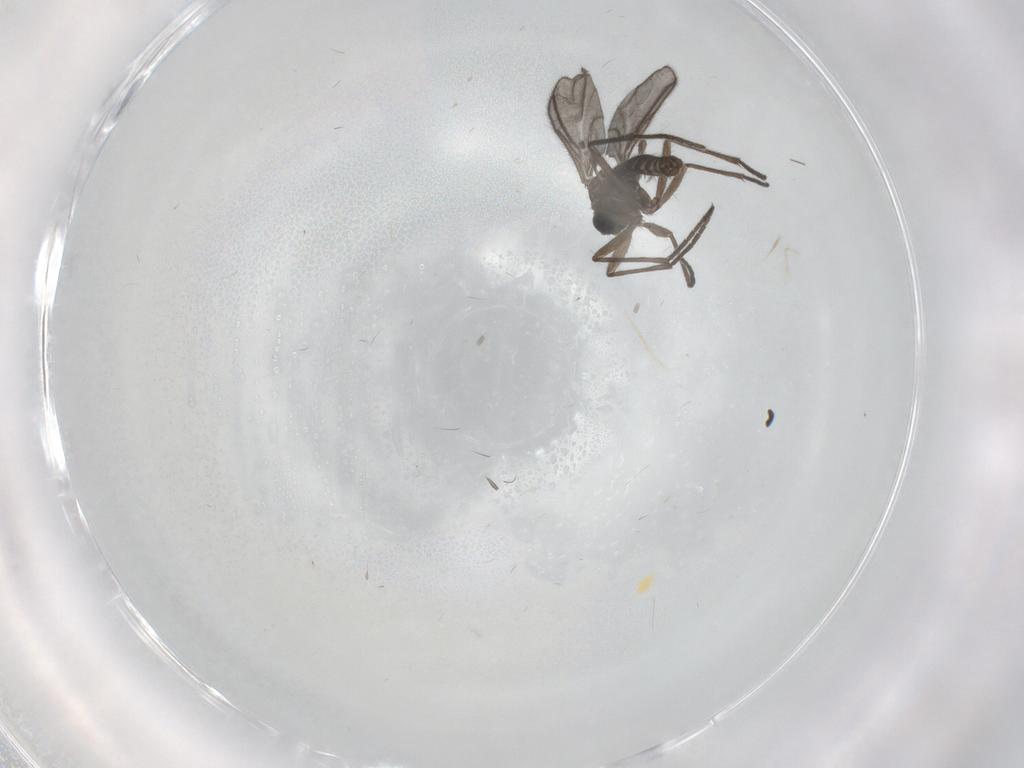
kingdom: Animalia
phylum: Arthropoda
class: Insecta
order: Diptera
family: Sciaridae
